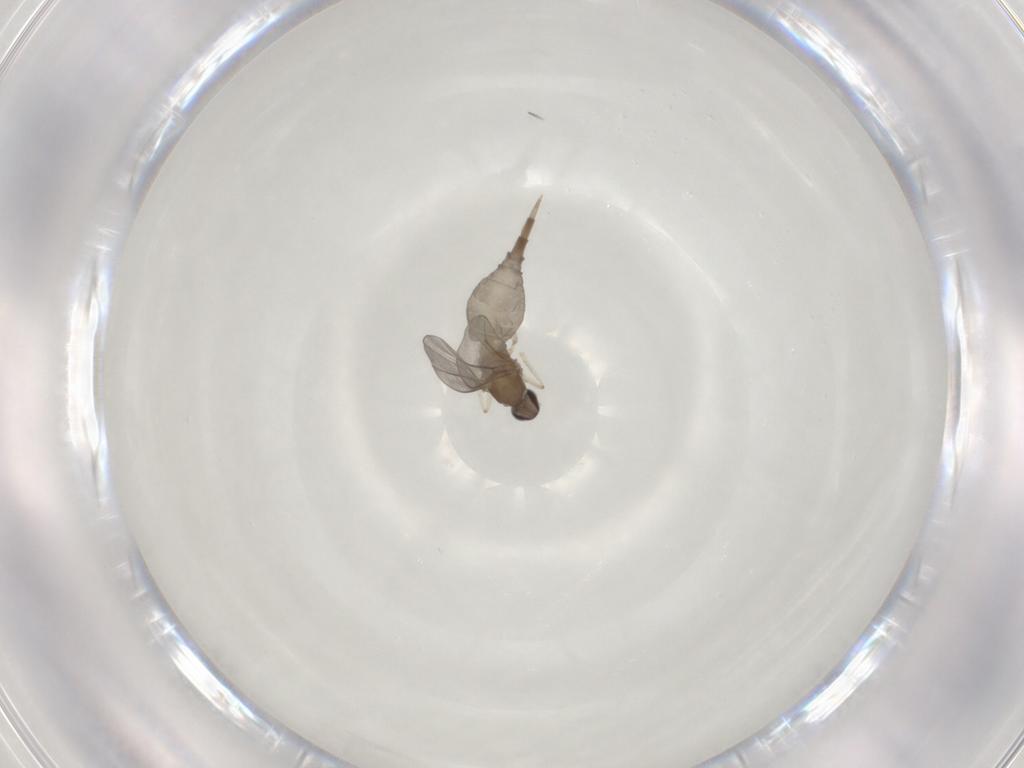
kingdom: Animalia
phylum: Arthropoda
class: Insecta
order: Diptera
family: Cecidomyiidae
